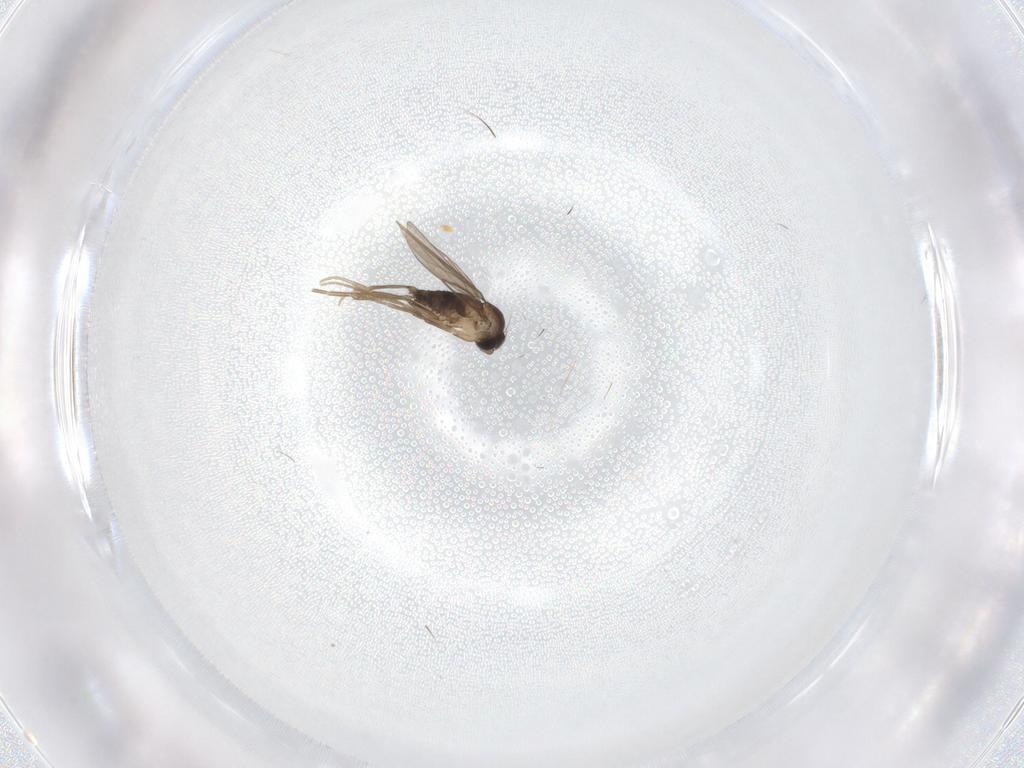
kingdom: Animalia
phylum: Arthropoda
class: Insecta
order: Diptera
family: Phoridae
